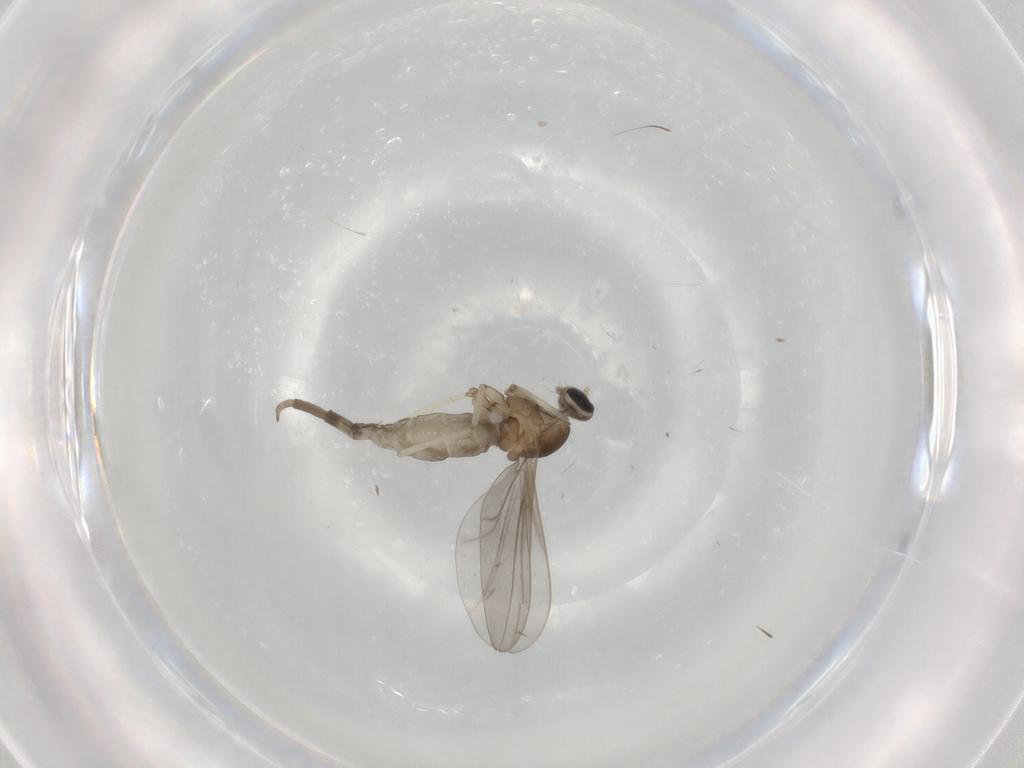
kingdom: Animalia
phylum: Arthropoda
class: Insecta
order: Diptera
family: Cecidomyiidae
